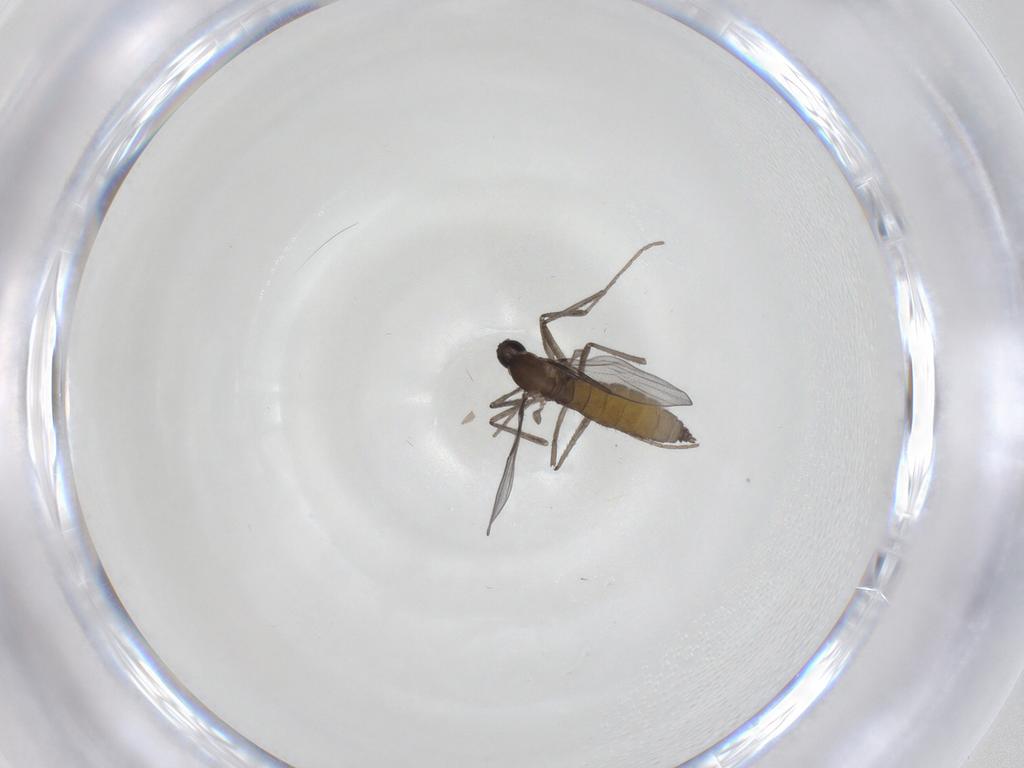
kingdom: Animalia
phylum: Arthropoda
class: Insecta
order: Diptera
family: Cecidomyiidae
